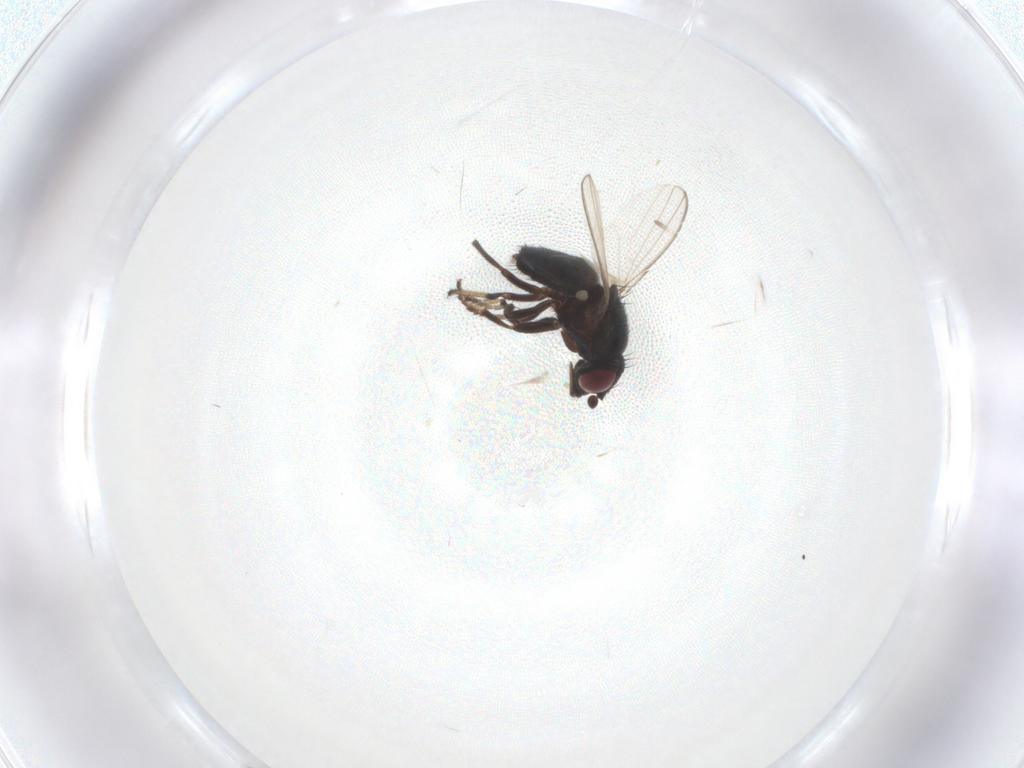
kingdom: Animalia
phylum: Arthropoda
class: Insecta
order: Diptera
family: Milichiidae
